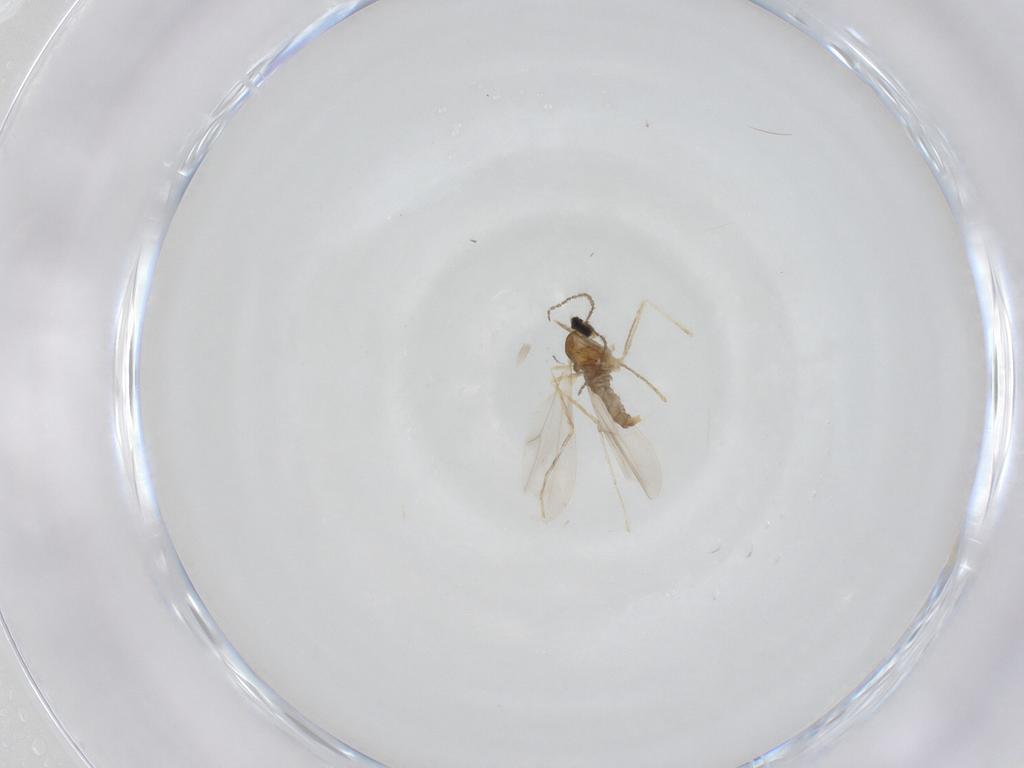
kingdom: Animalia
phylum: Arthropoda
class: Insecta
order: Diptera
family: Cecidomyiidae
